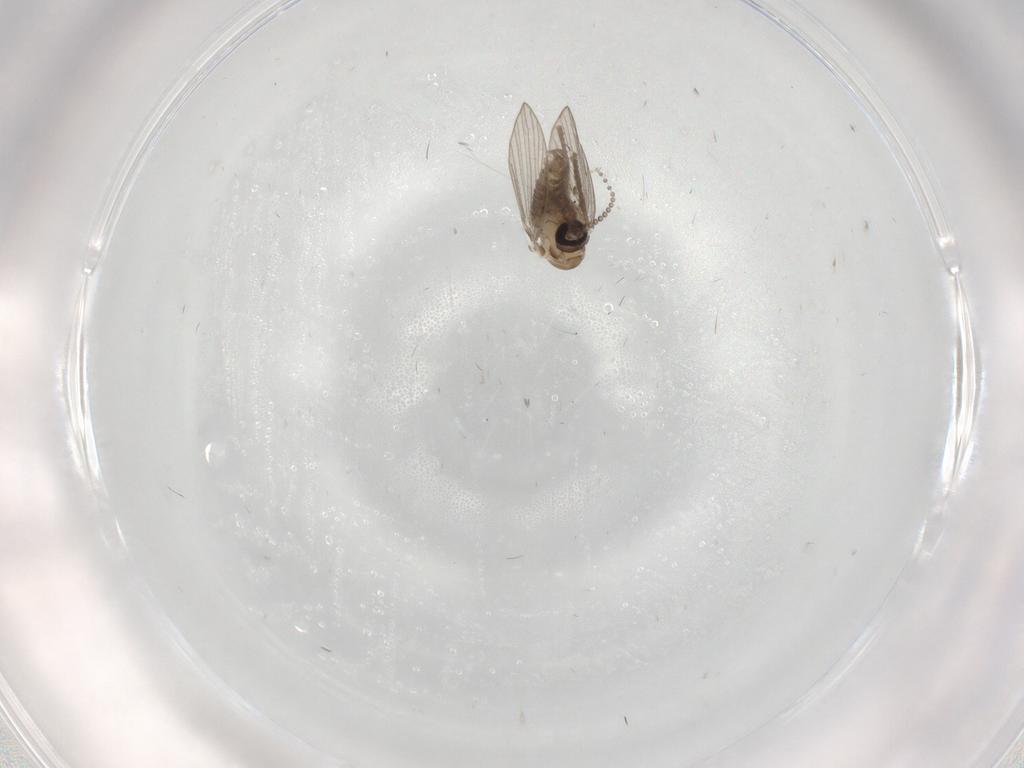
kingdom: Animalia
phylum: Arthropoda
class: Insecta
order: Diptera
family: Psychodidae
